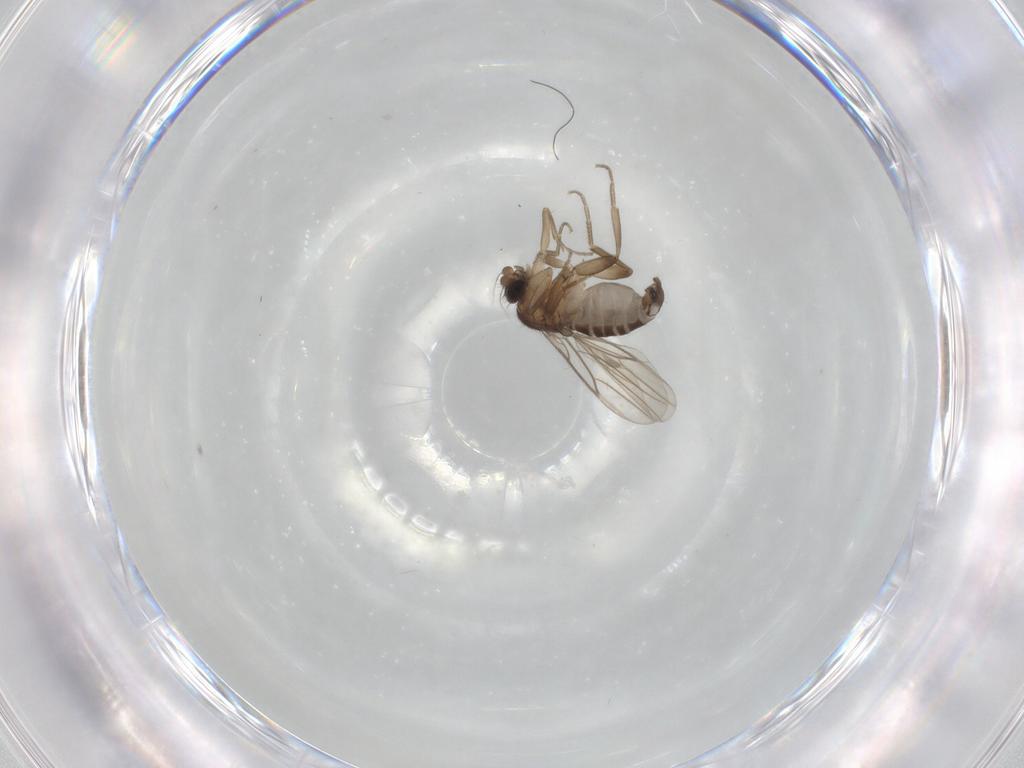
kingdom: Animalia
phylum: Arthropoda
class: Insecta
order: Diptera
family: Phoridae
